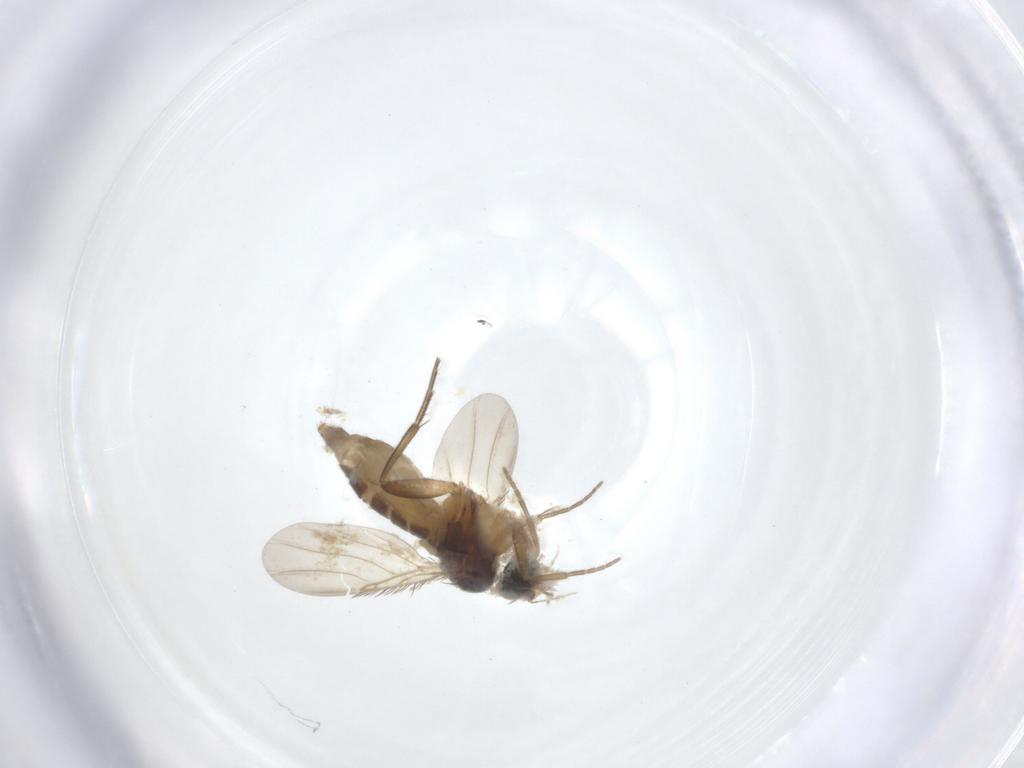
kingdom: Animalia
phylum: Arthropoda
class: Insecta
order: Diptera
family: Phoridae
